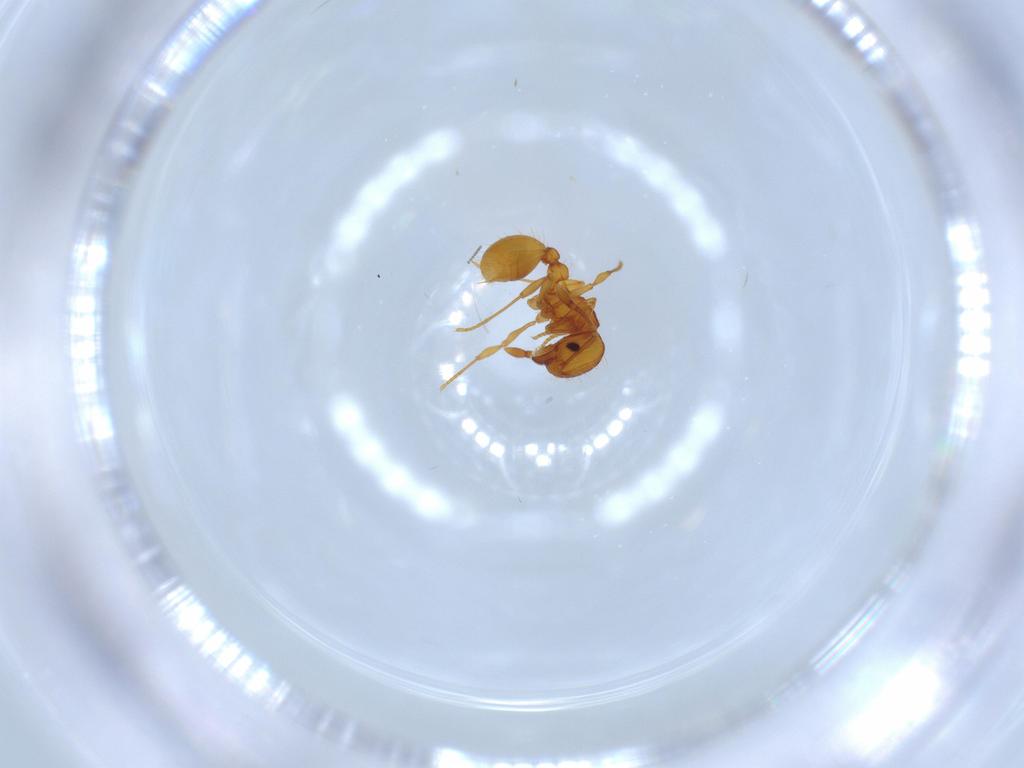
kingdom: Animalia
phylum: Arthropoda
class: Insecta
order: Hymenoptera
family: Formicidae
